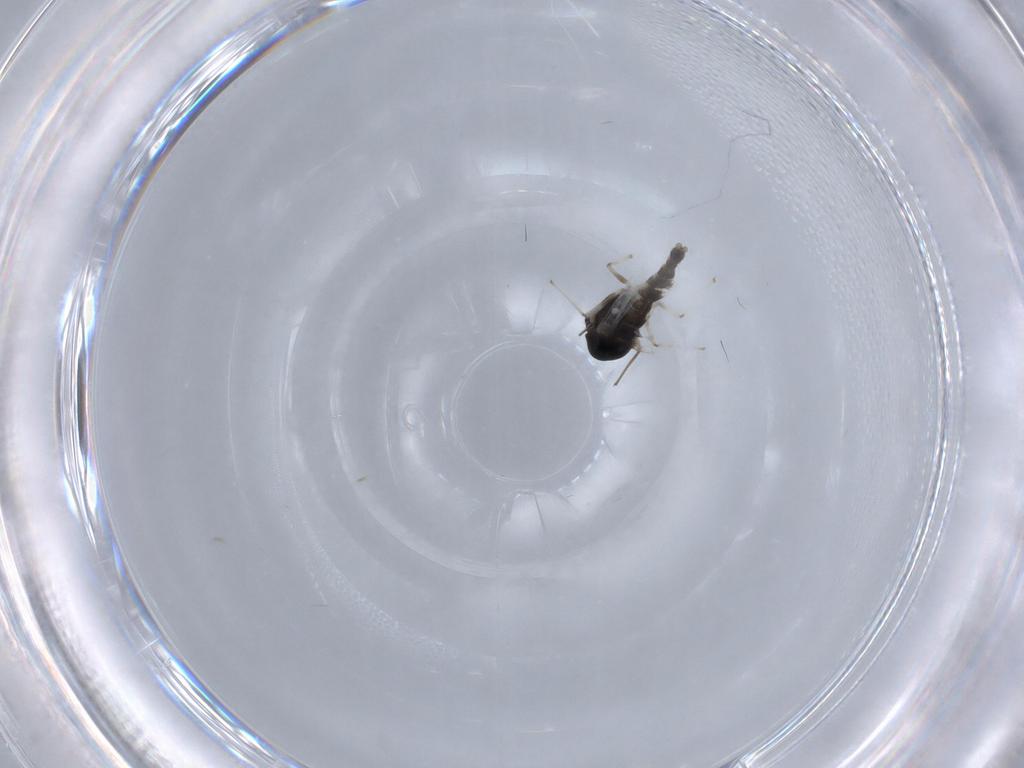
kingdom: Animalia
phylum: Arthropoda
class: Insecta
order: Diptera
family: Chironomidae
